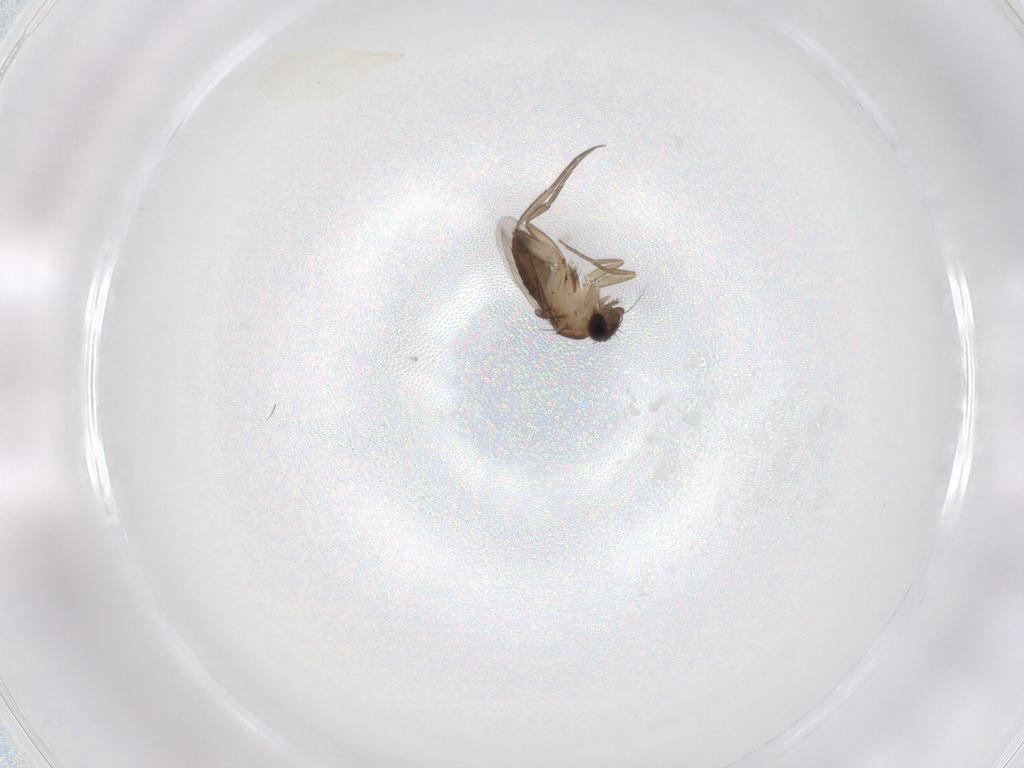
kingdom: Animalia
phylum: Arthropoda
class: Insecta
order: Diptera
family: Phoridae
